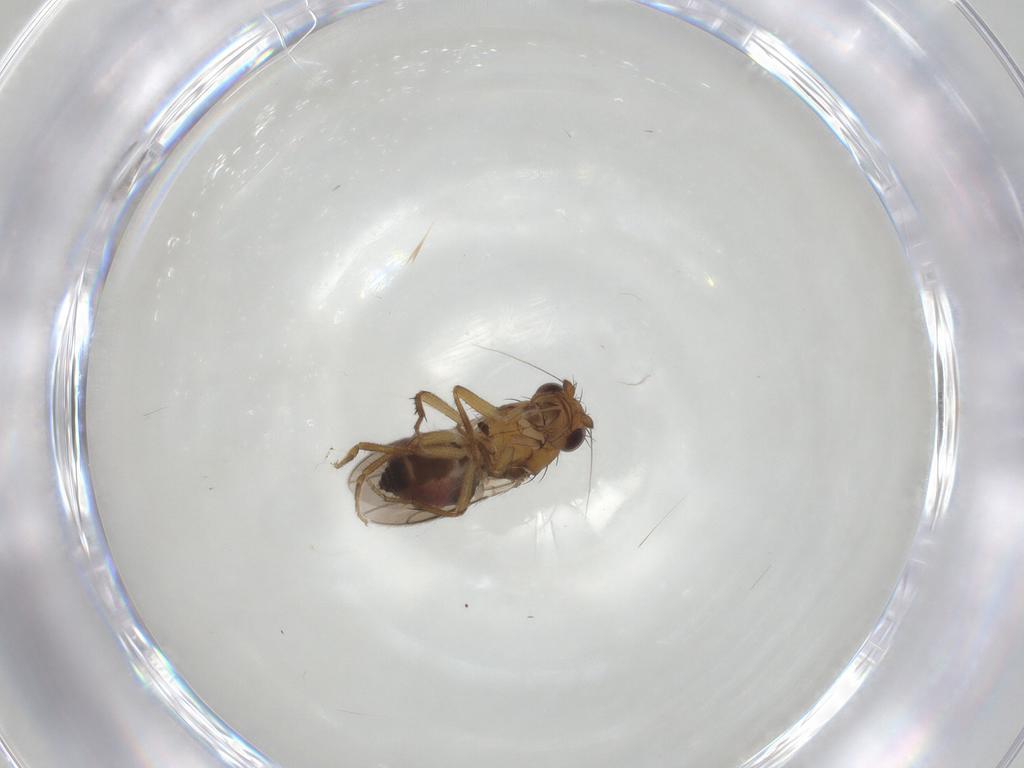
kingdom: Animalia
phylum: Arthropoda
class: Insecta
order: Diptera
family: Sphaeroceridae
